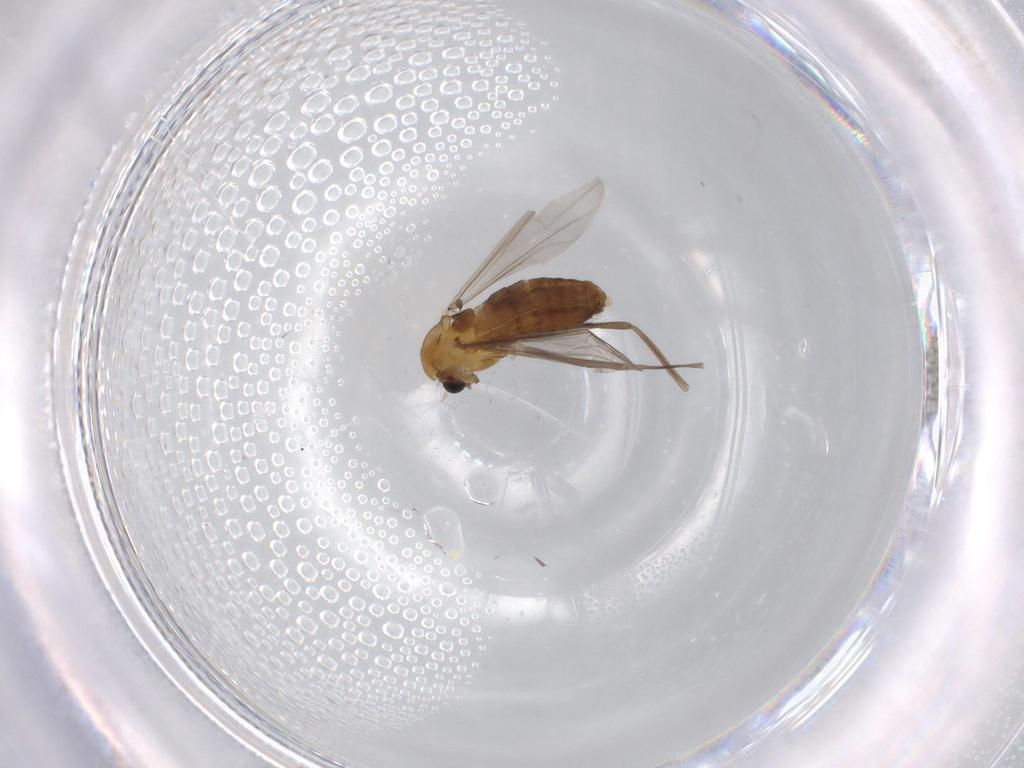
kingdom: Animalia
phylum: Arthropoda
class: Insecta
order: Diptera
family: Chironomidae
